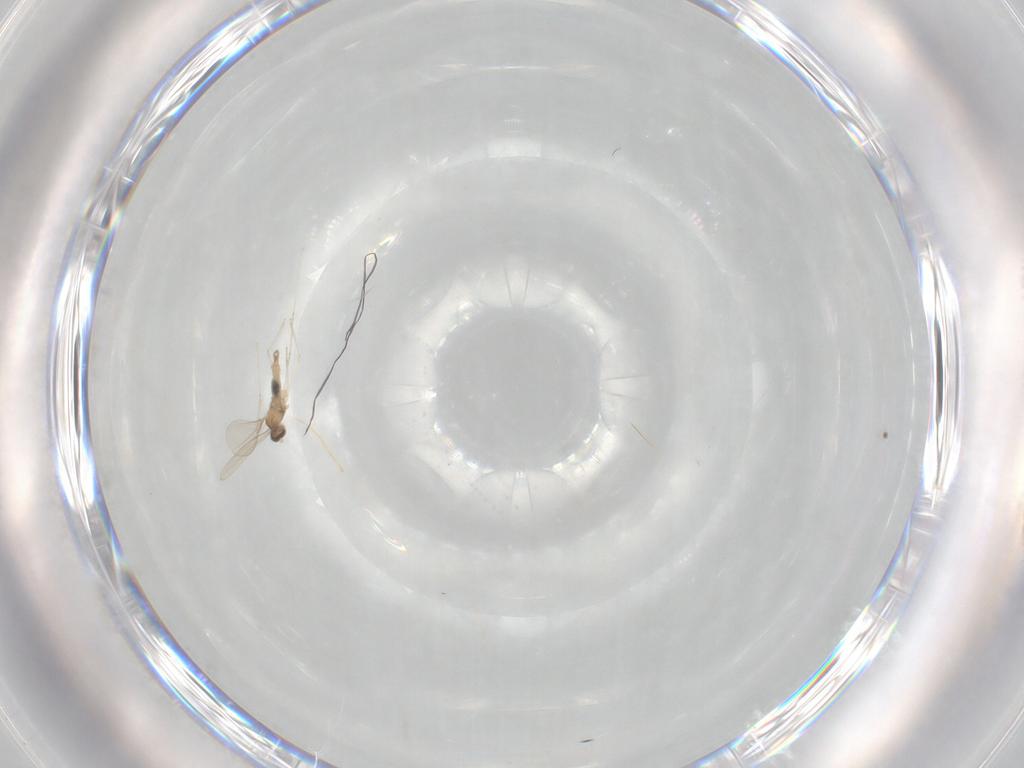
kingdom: Animalia
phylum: Arthropoda
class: Insecta
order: Diptera
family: Cecidomyiidae
